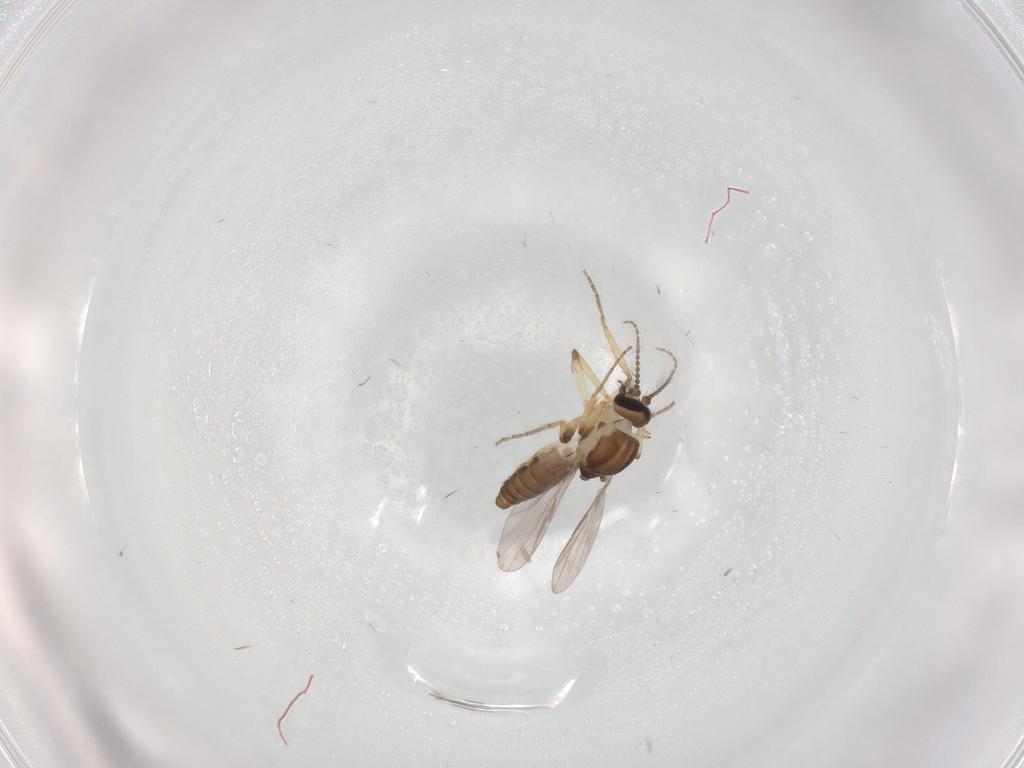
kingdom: Animalia
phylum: Arthropoda
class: Insecta
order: Diptera
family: Ceratopogonidae
